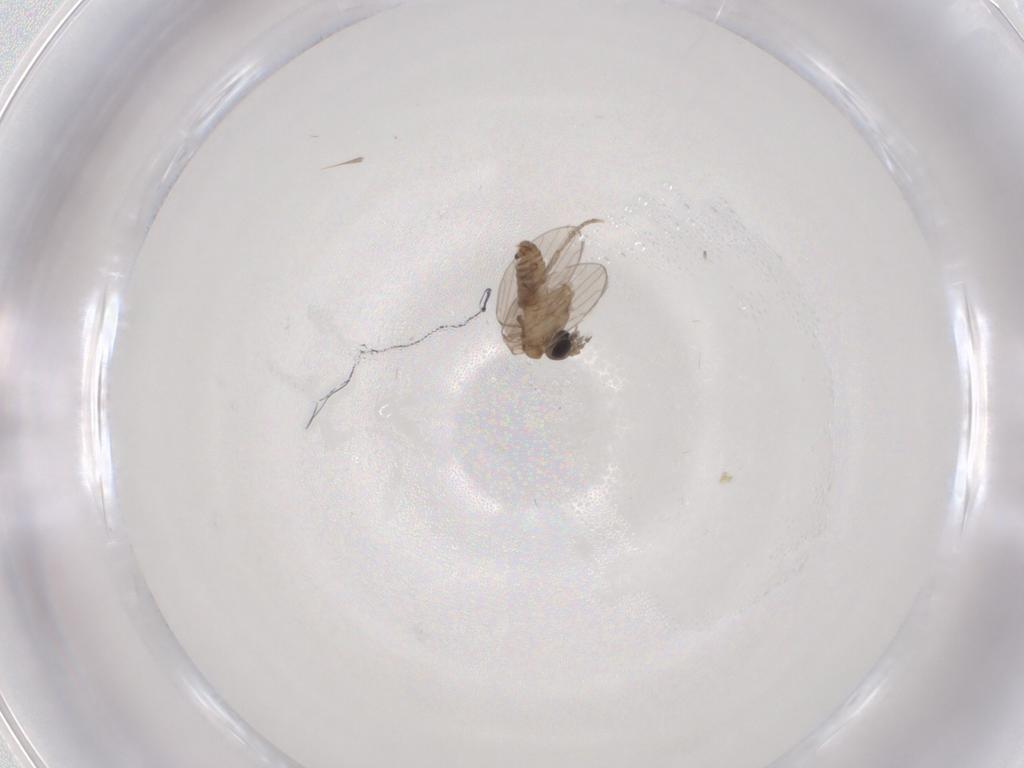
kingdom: Animalia
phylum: Arthropoda
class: Insecta
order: Diptera
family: Psychodidae
